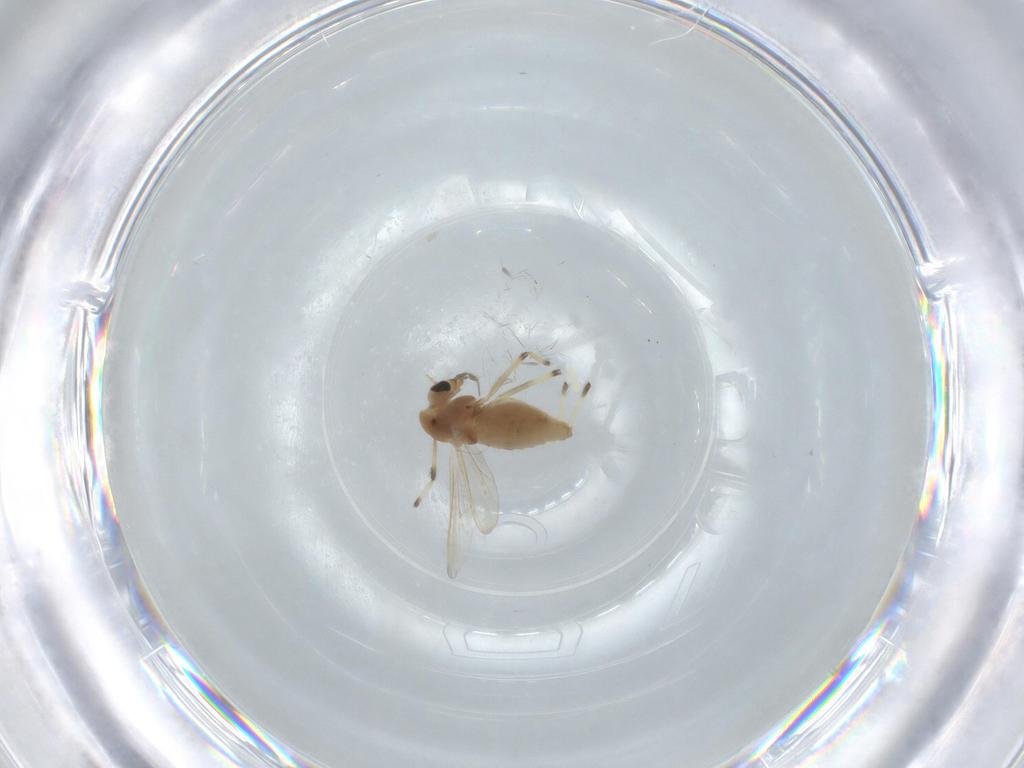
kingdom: Animalia
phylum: Arthropoda
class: Insecta
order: Diptera
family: Chironomidae
